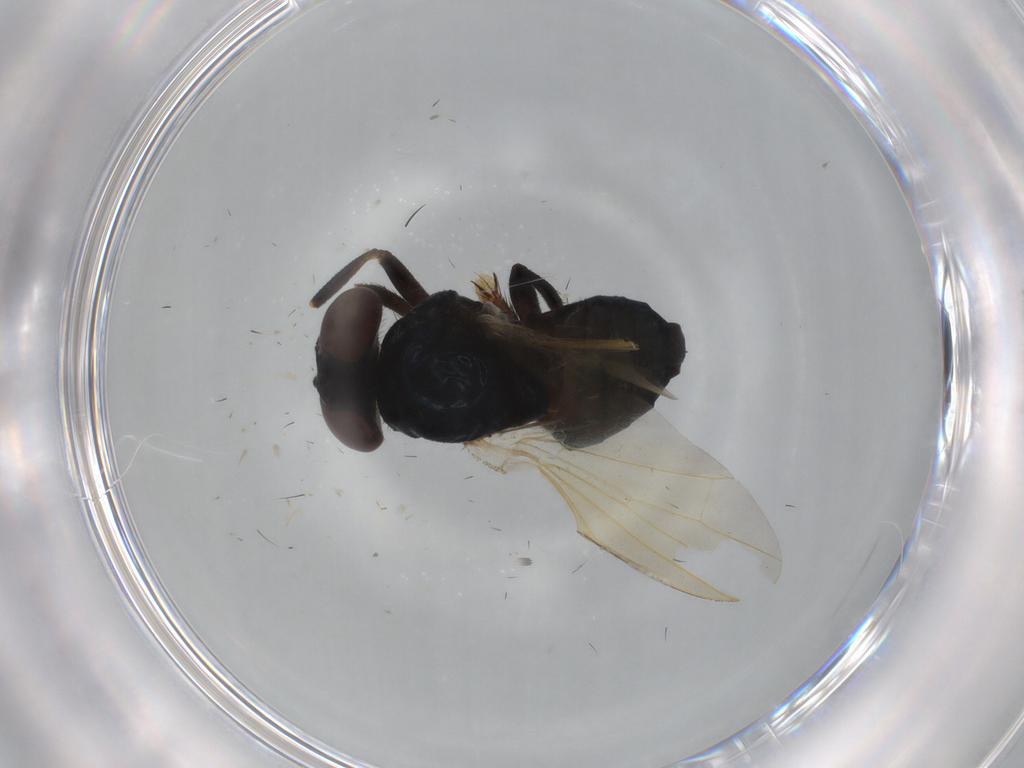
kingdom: Animalia
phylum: Arthropoda
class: Insecta
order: Diptera
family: Lonchaeidae
